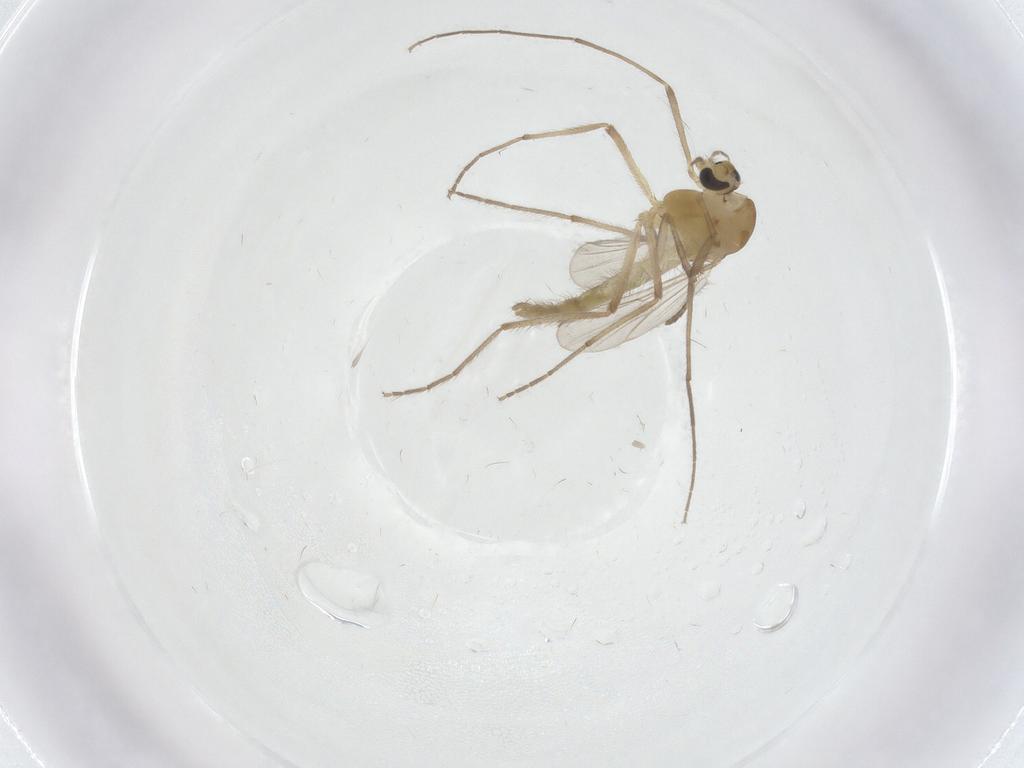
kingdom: Animalia
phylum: Arthropoda
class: Insecta
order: Diptera
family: Chironomidae
